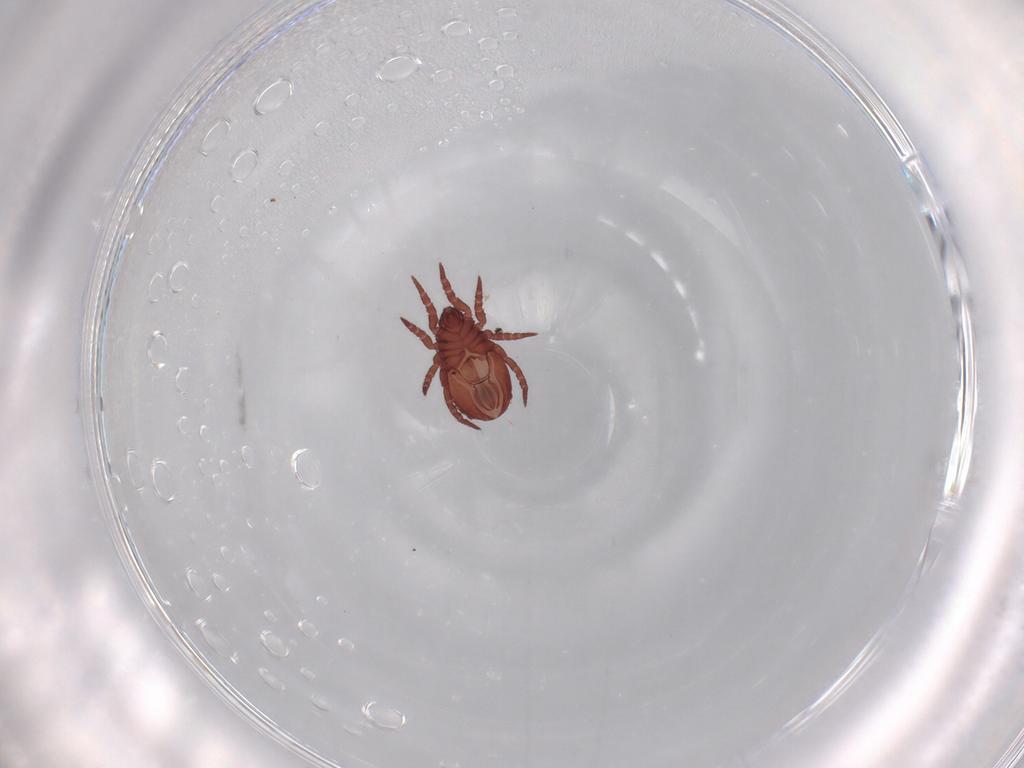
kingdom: Animalia
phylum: Arthropoda
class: Arachnida
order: Sarcoptiformes
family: Nothridae
